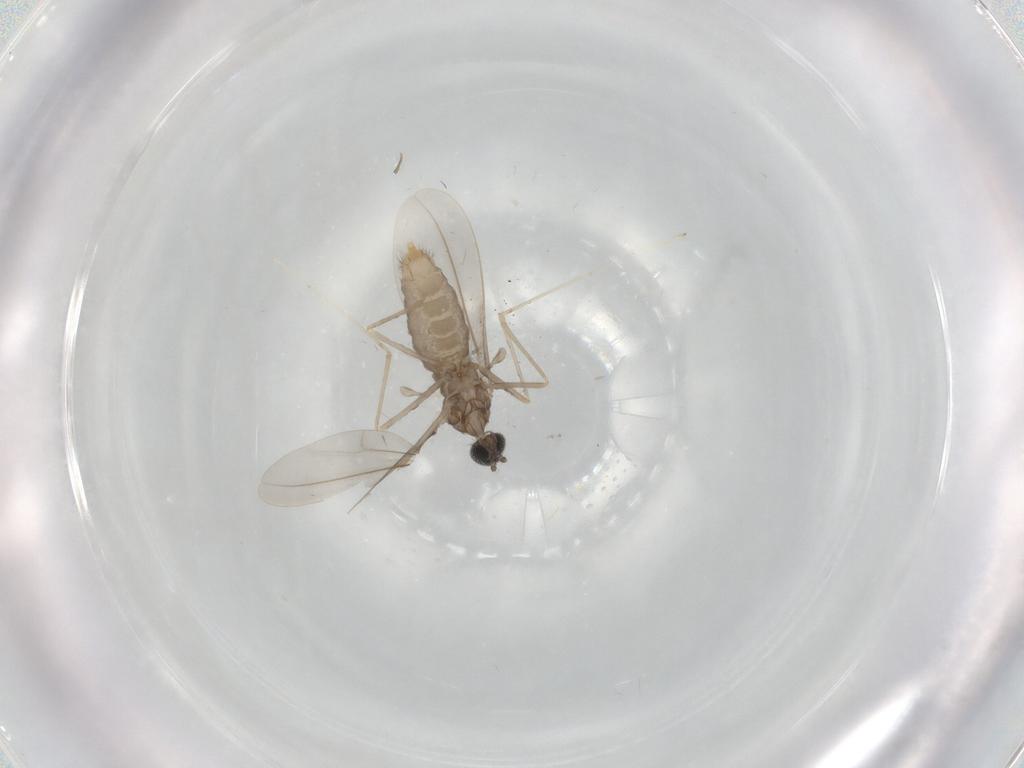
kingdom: Animalia
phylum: Arthropoda
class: Insecta
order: Diptera
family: Cecidomyiidae
